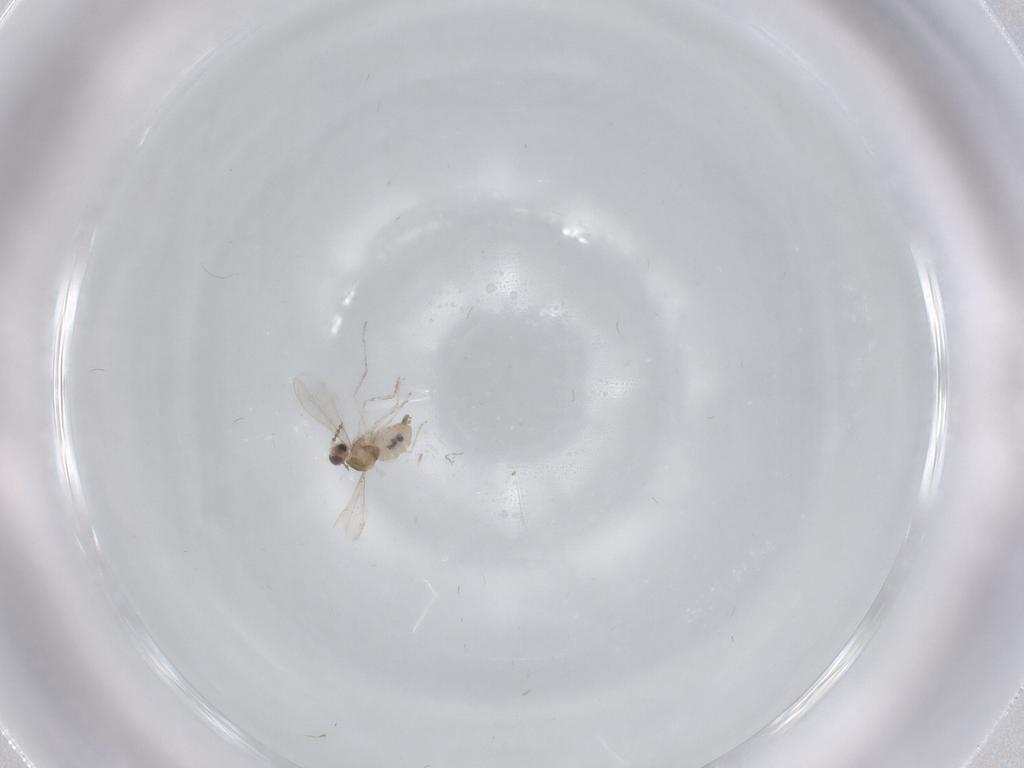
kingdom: Animalia
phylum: Arthropoda
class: Insecta
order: Diptera
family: Cecidomyiidae
